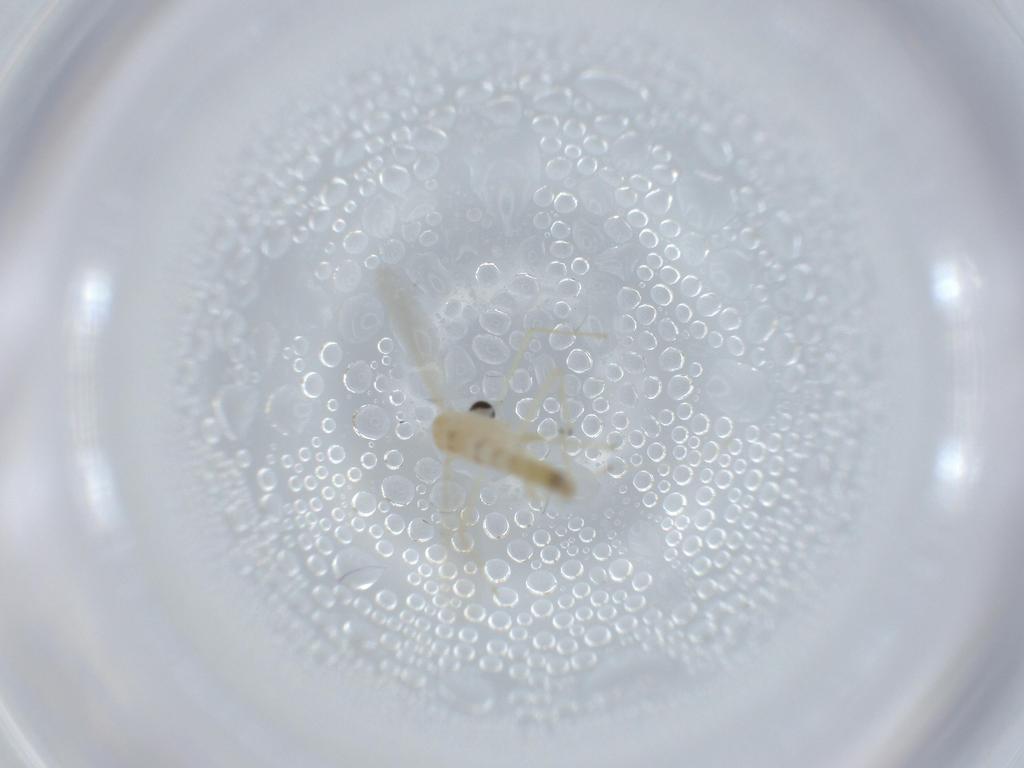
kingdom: Animalia
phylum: Arthropoda
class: Insecta
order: Diptera
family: Chironomidae
